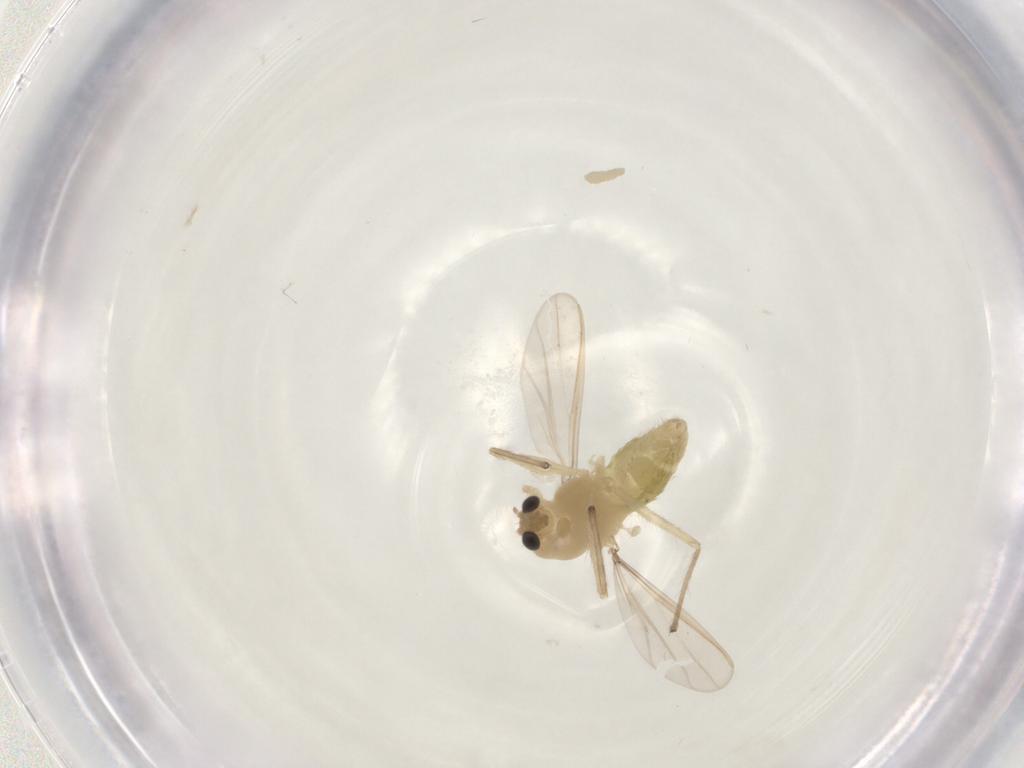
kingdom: Animalia
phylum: Arthropoda
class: Insecta
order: Diptera
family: Chironomidae
